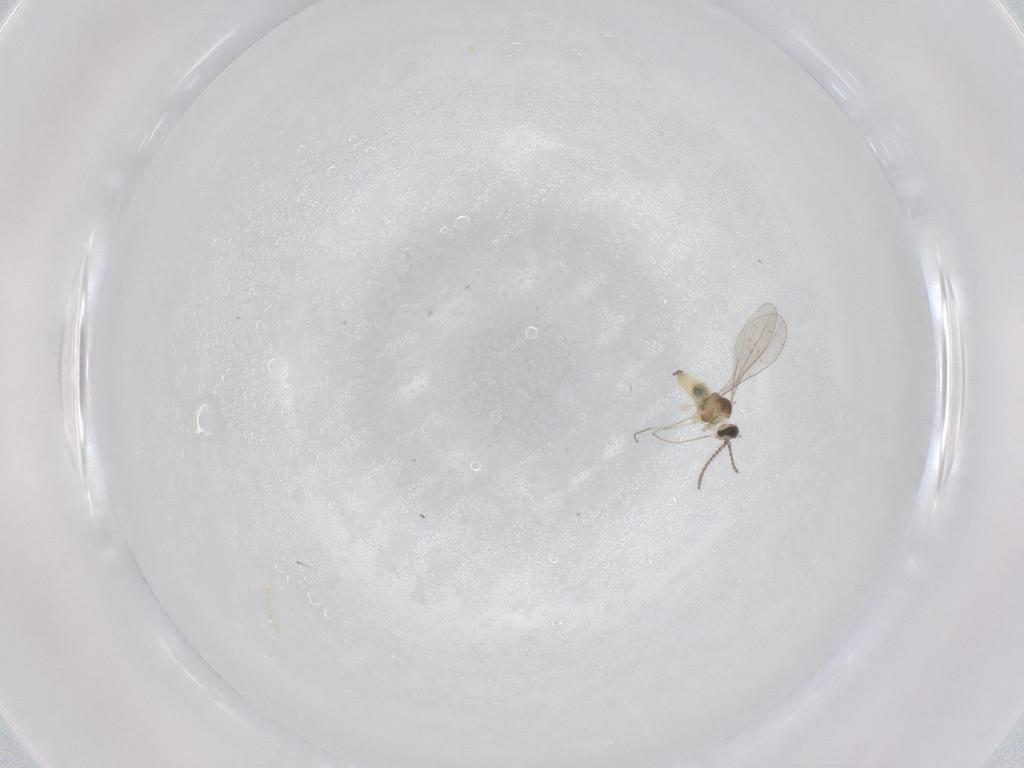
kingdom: Animalia
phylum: Arthropoda
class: Insecta
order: Diptera
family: Cecidomyiidae
